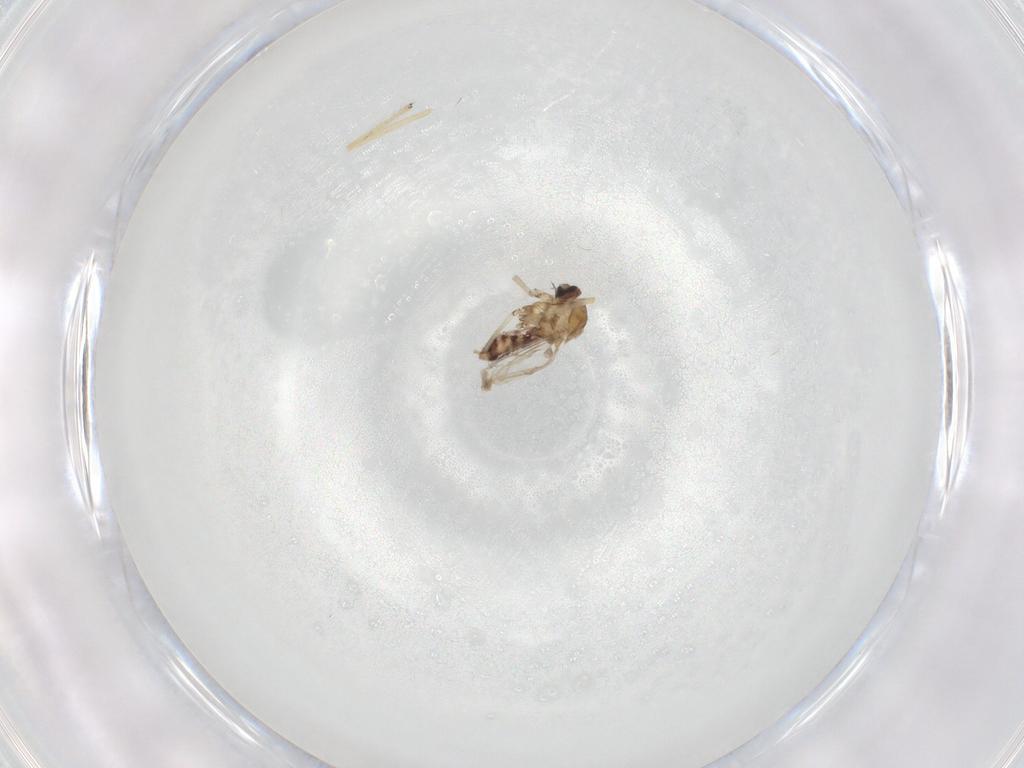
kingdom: Animalia
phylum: Arthropoda
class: Insecta
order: Diptera
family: Ceratopogonidae
